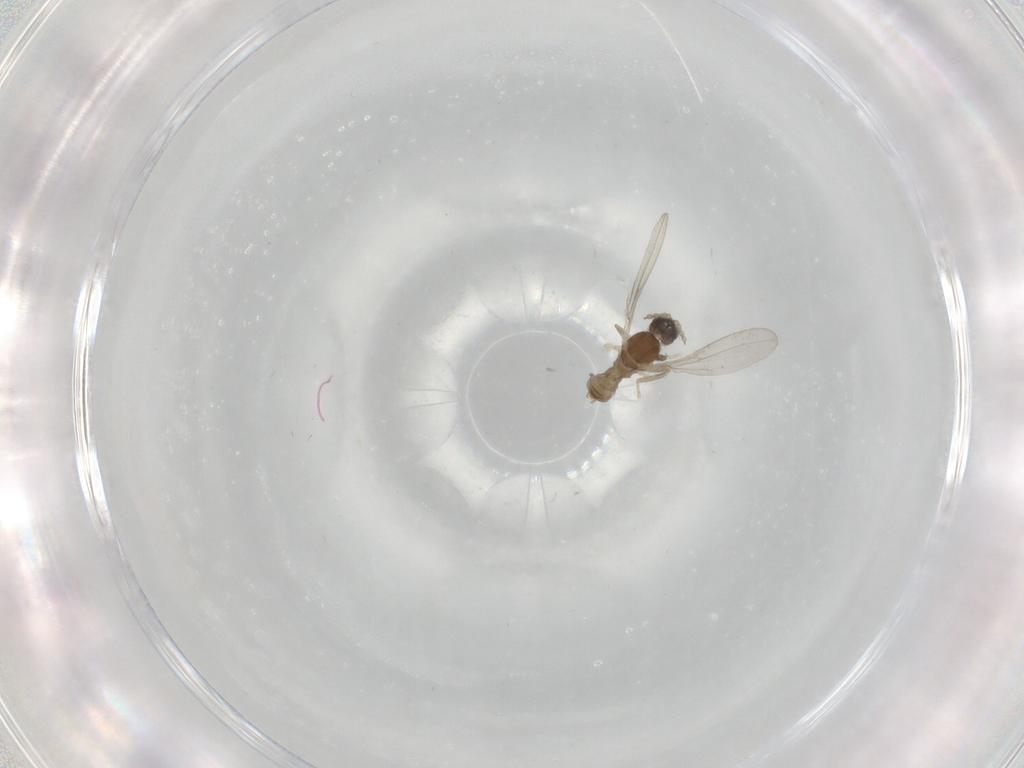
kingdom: Animalia
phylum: Arthropoda
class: Insecta
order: Diptera
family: Cecidomyiidae
